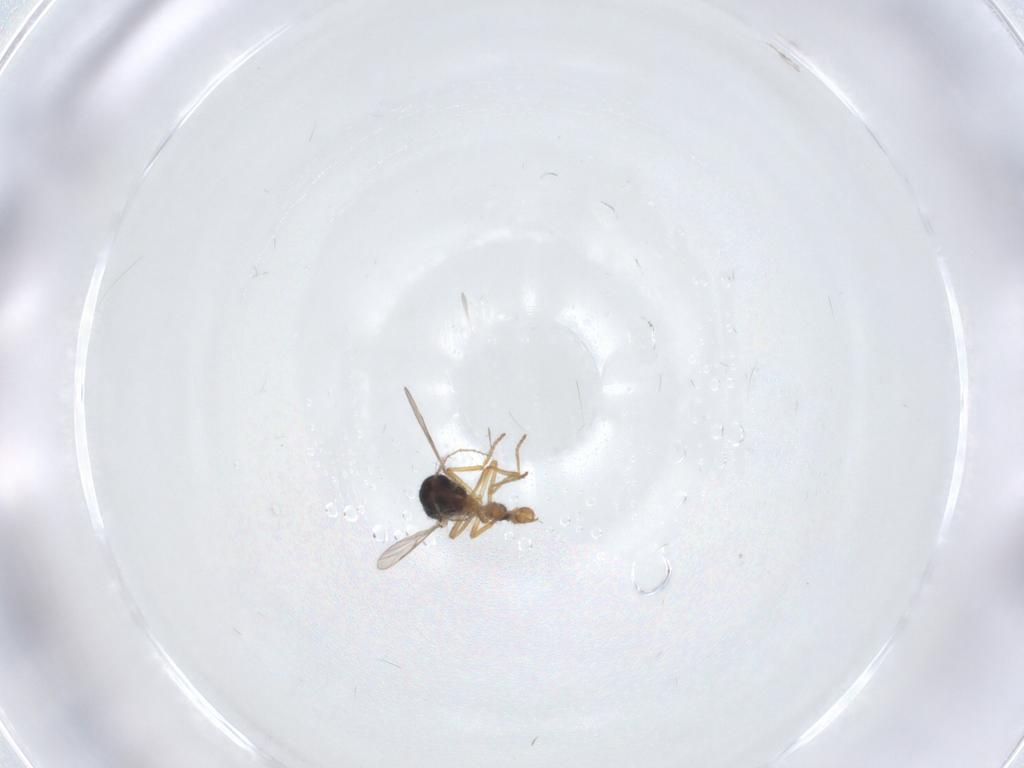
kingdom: Animalia
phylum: Arthropoda
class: Insecta
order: Diptera
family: Ceratopogonidae
